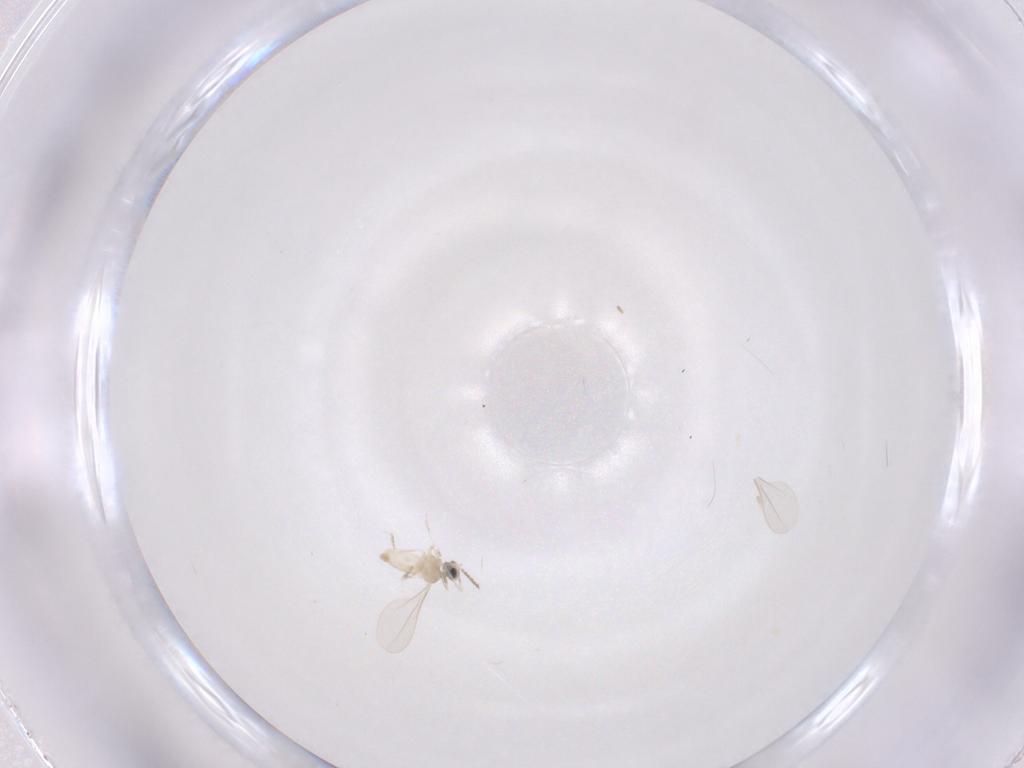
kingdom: Animalia
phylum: Arthropoda
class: Insecta
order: Diptera
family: Cecidomyiidae
